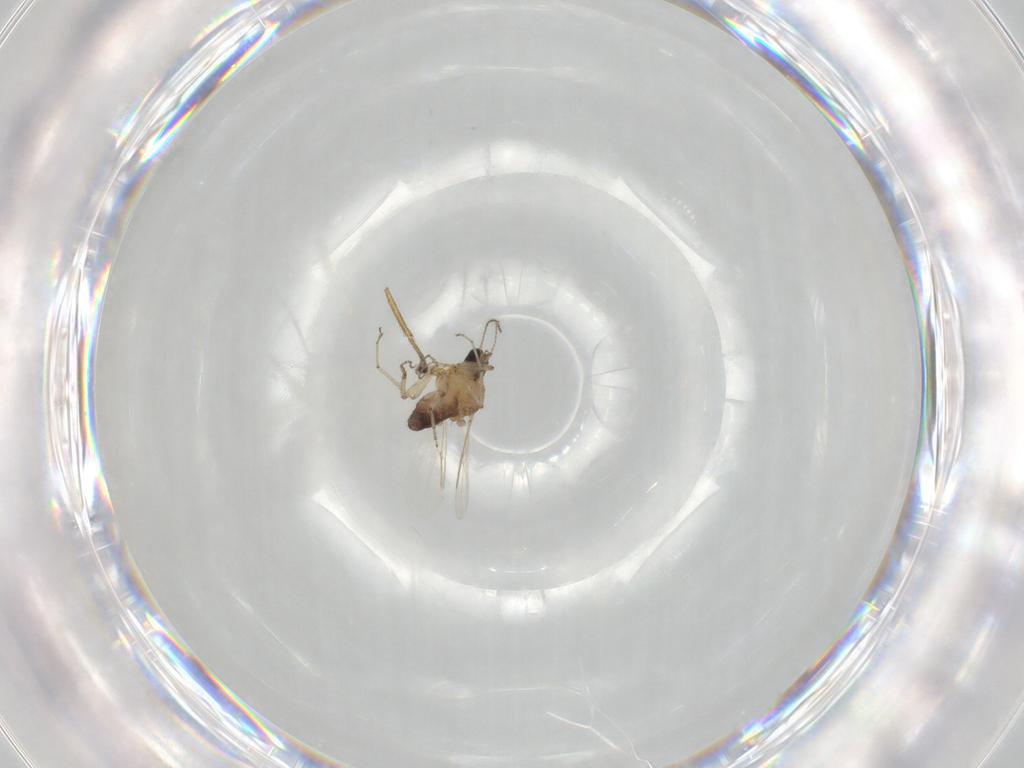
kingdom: Animalia
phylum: Arthropoda
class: Insecta
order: Diptera
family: Ceratopogonidae
